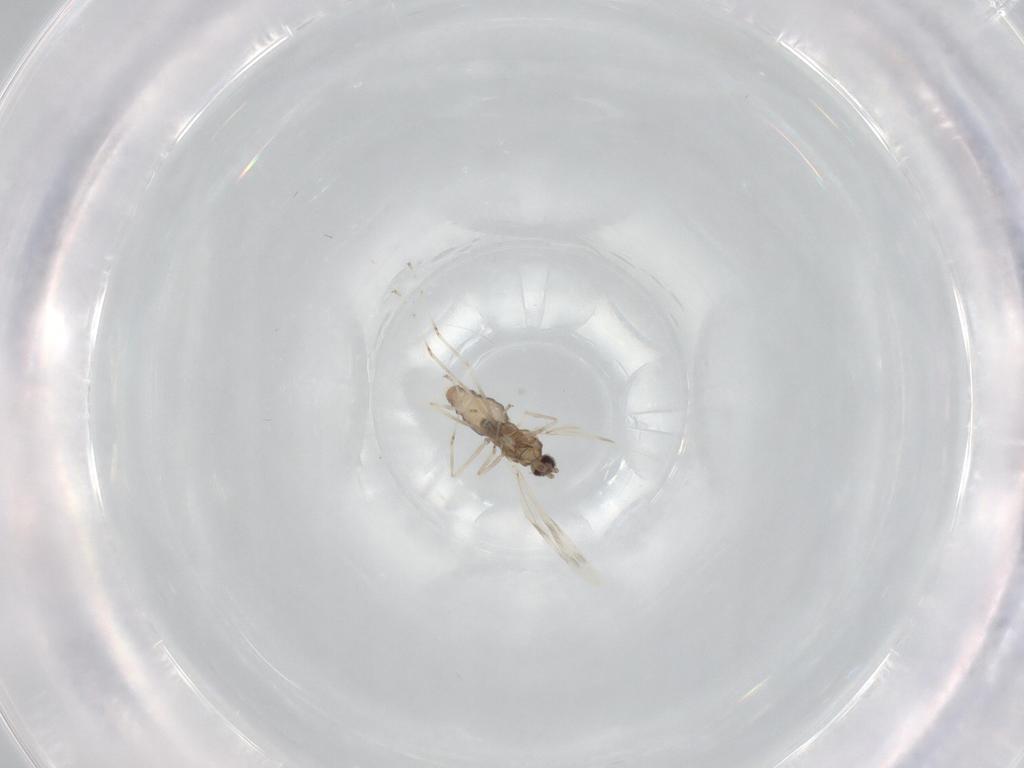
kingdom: Animalia
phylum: Arthropoda
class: Insecta
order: Diptera
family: Cecidomyiidae
